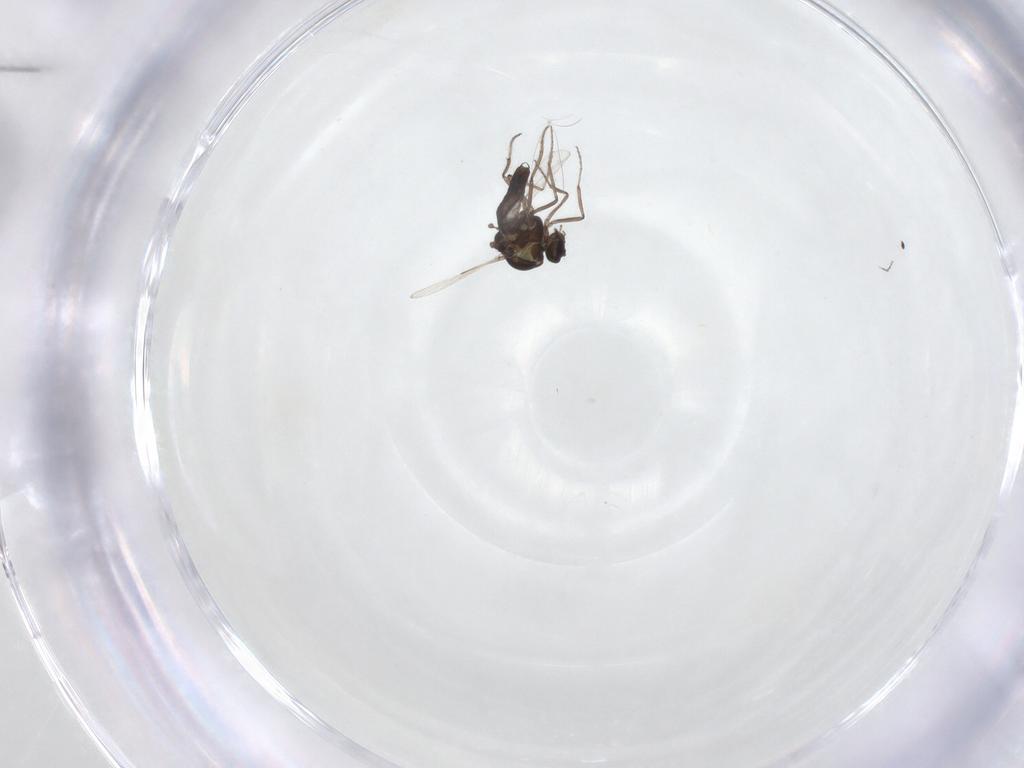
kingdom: Animalia
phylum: Arthropoda
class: Insecta
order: Diptera
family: Ceratopogonidae
